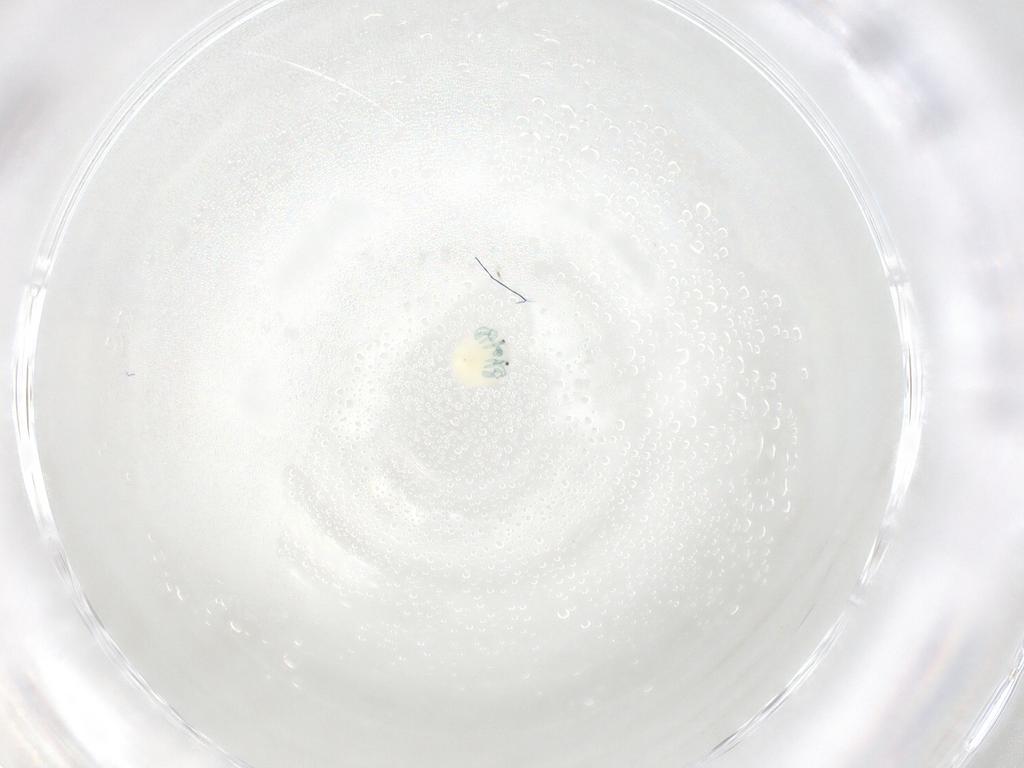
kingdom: Animalia
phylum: Arthropoda
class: Arachnida
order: Trombidiformes
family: Arrenuridae
